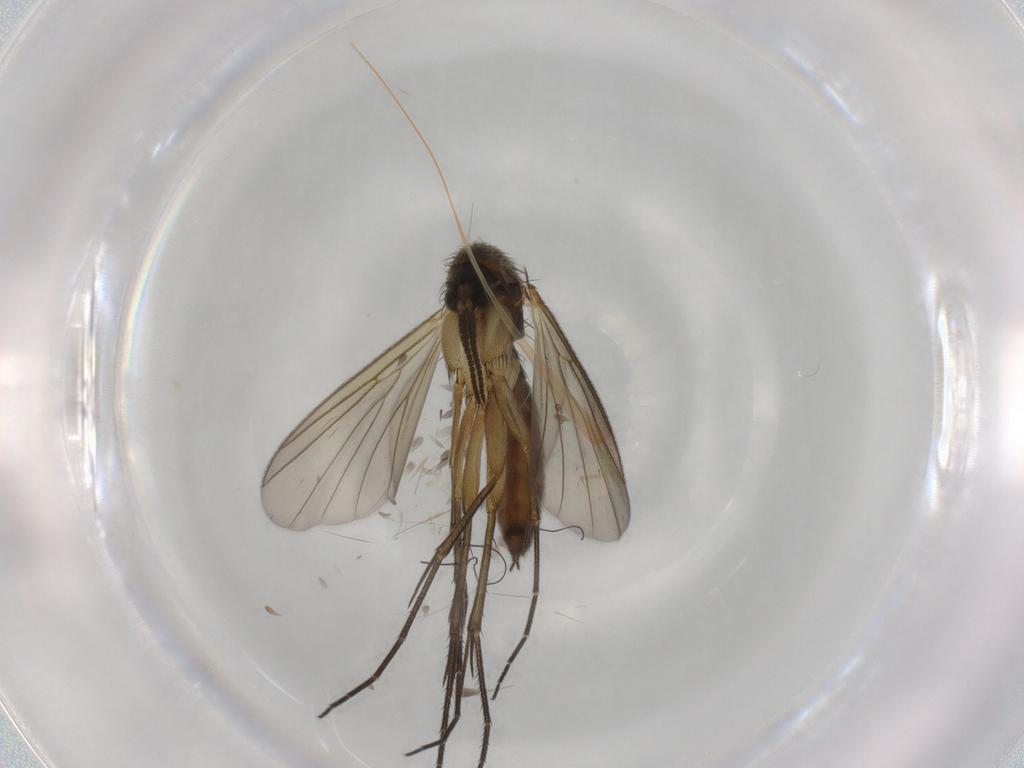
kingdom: Animalia
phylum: Arthropoda
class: Insecta
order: Diptera
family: Mycetophilidae
